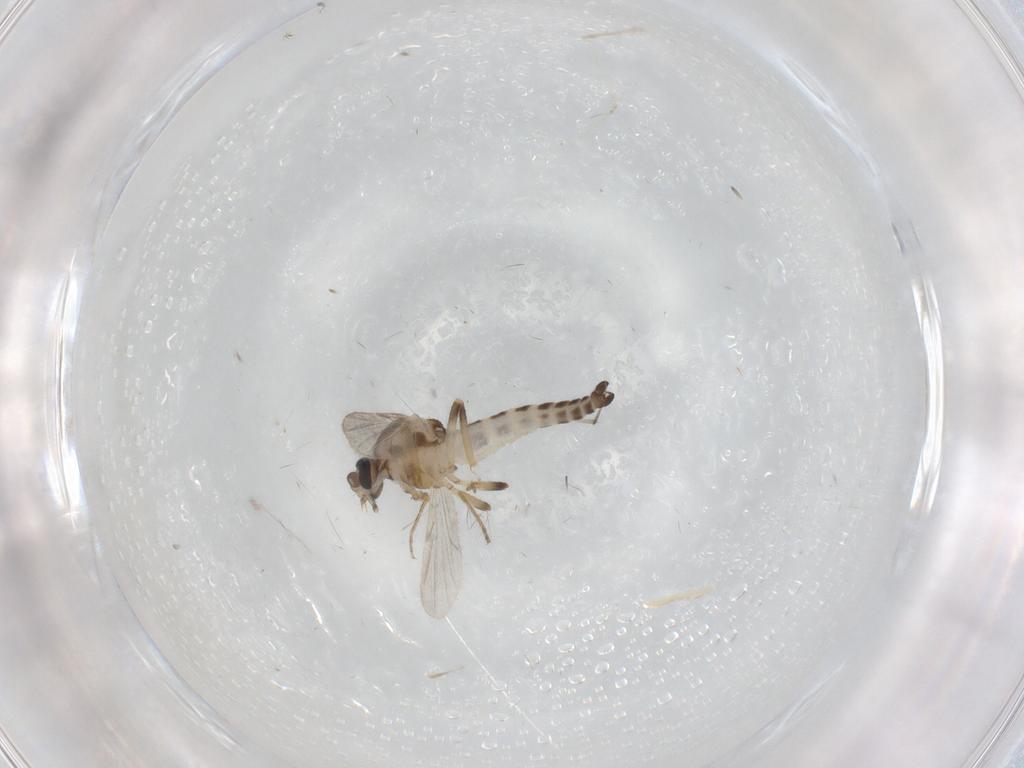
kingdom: Animalia
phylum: Arthropoda
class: Insecta
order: Diptera
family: Ceratopogonidae
